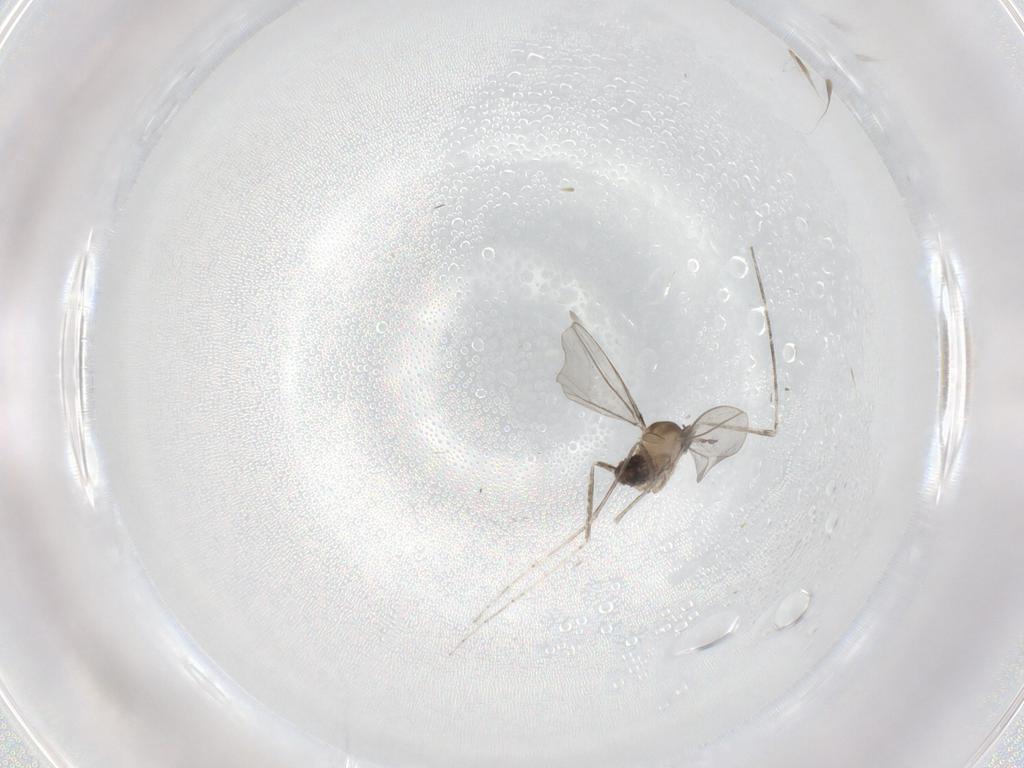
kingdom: Animalia
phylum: Arthropoda
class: Insecta
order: Diptera
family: Cecidomyiidae
